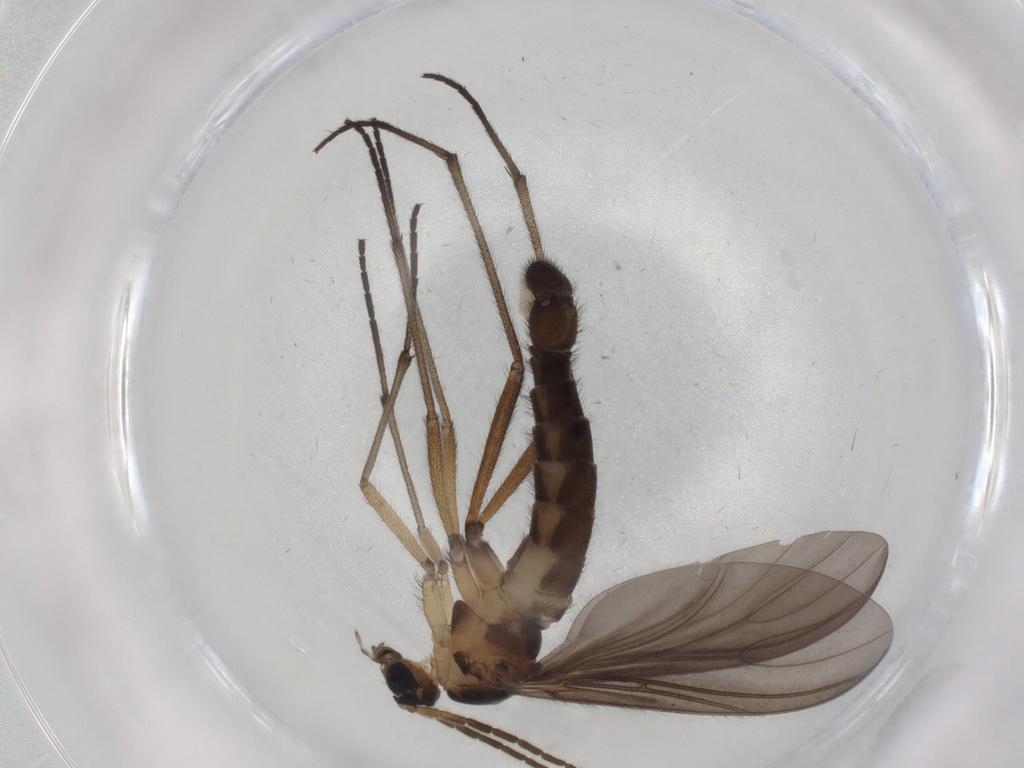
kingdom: Animalia
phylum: Arthropoda
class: Insecta
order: Diptera
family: Sciaridae
